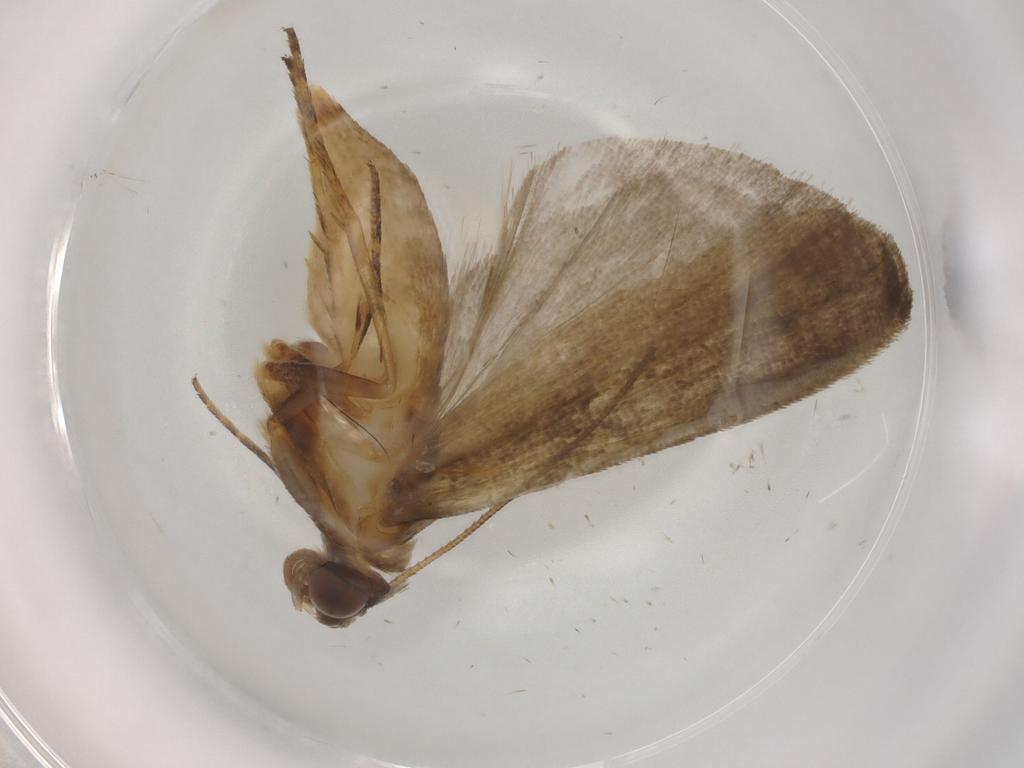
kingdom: Animalia
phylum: Arthropoda
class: Insecta
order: Lepidoptera
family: Noctuidae
